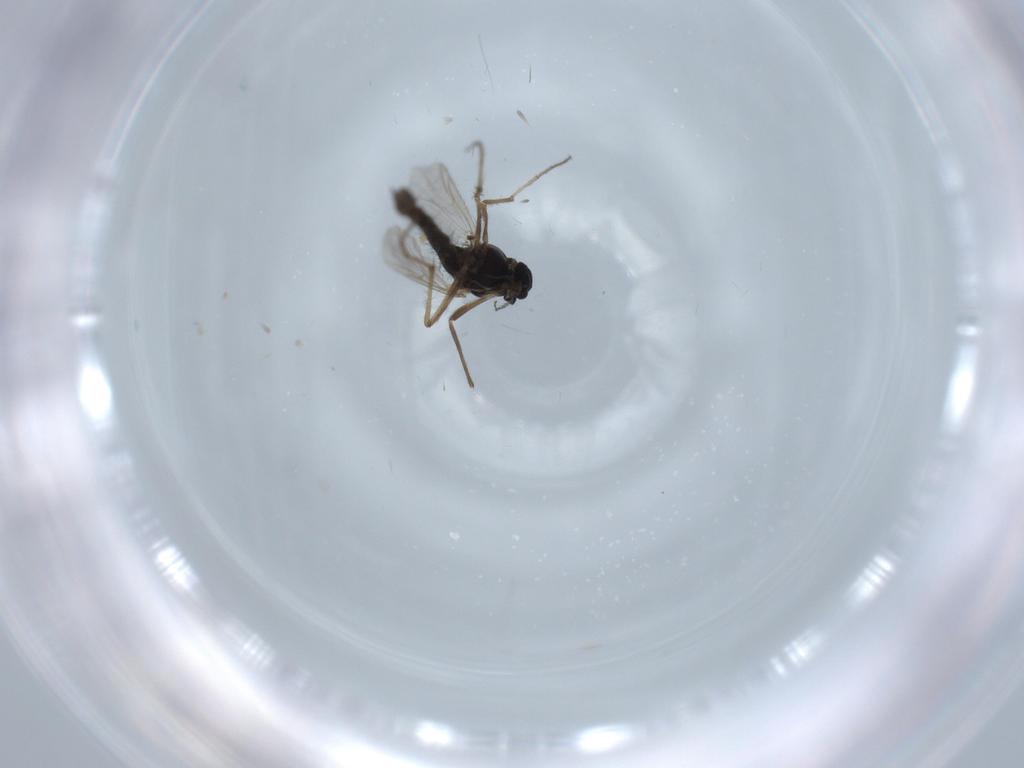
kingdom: Animalia
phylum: Arthropoda
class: Insecta
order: Diptera
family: Chironomidae
